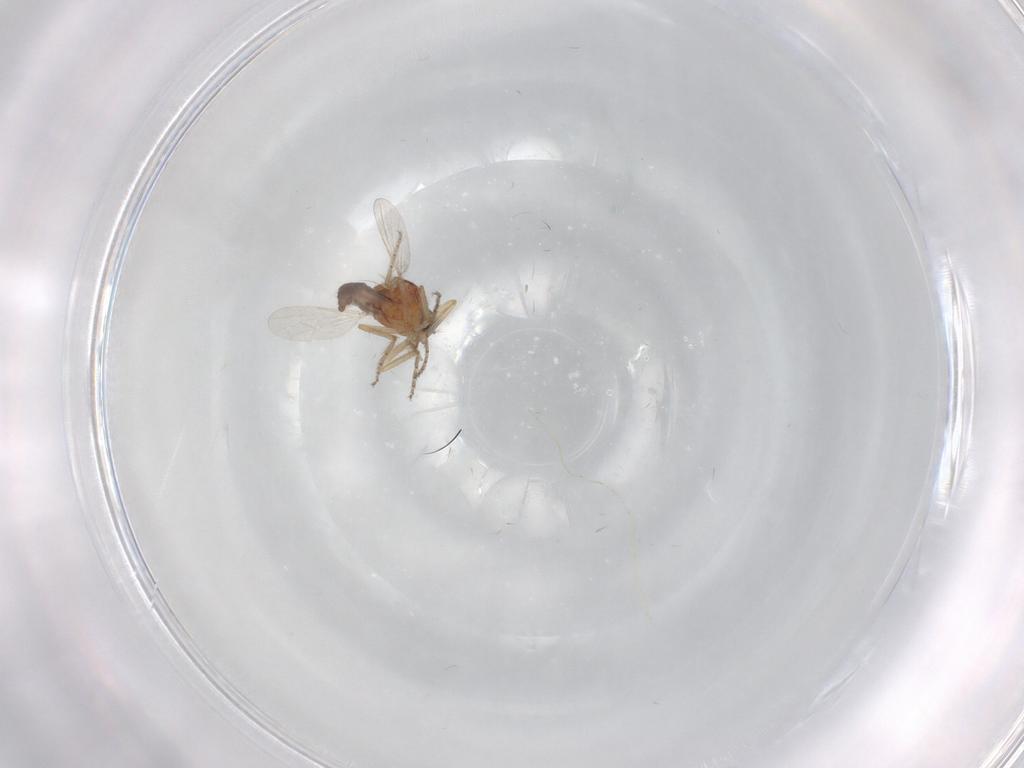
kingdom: Animalia
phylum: Arthropoda
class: Insecta
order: Diptera
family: Ceratopogonidae
